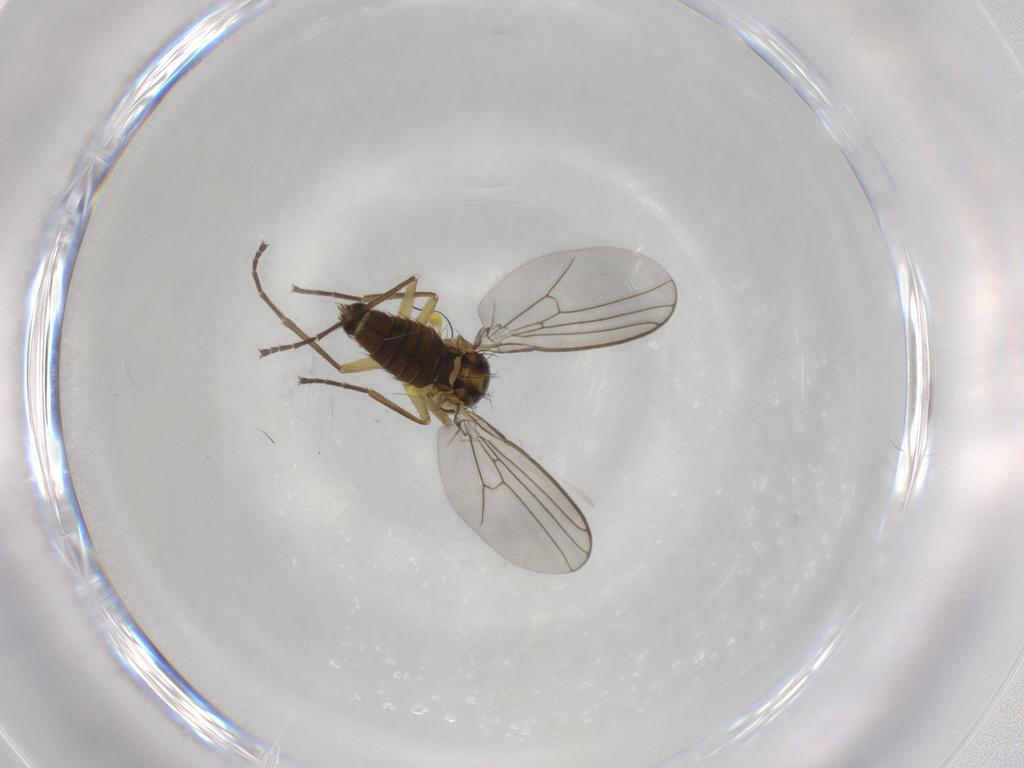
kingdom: Animalia
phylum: Arthropoda
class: Insecta
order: Diptera
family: Agromyzidae
